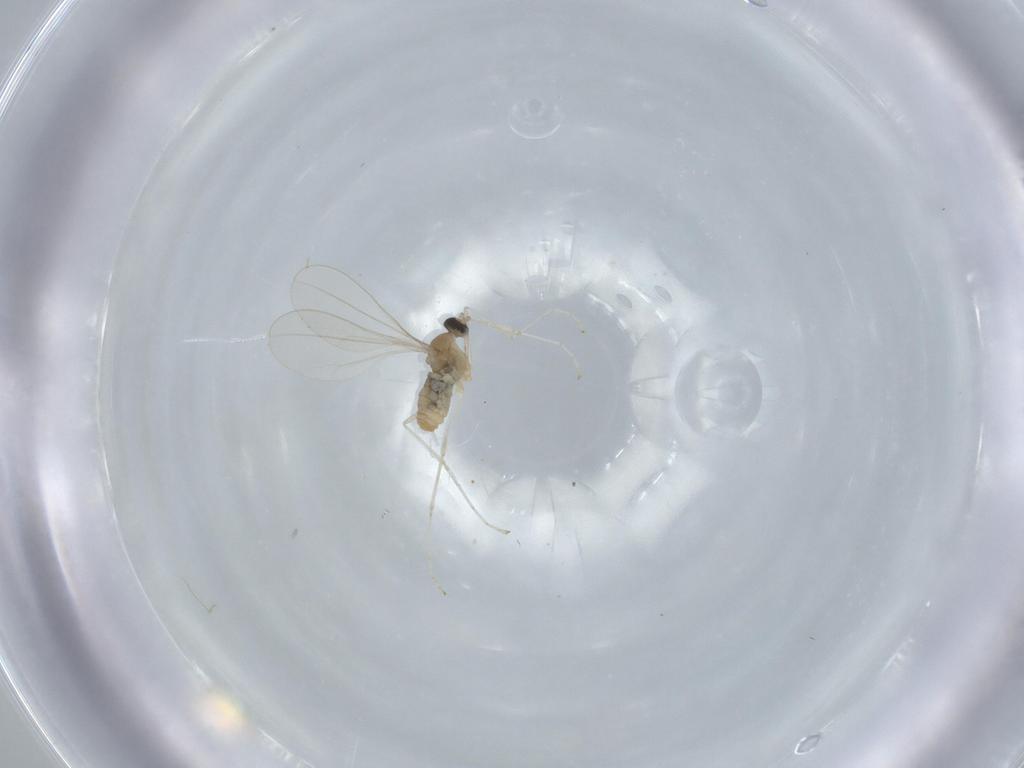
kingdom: Animalia
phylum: Arthropoda
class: Insecta
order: Diptera
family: Cecidomyiidae
